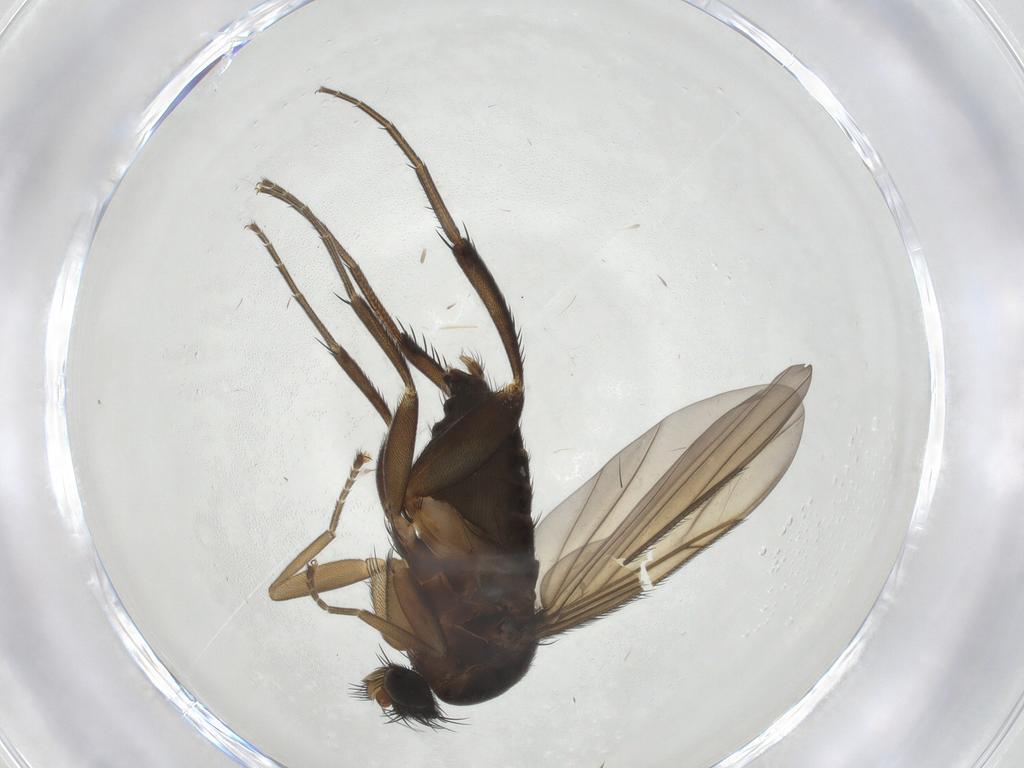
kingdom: Animalia
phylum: Arthropoda
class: Insecta
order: Diptera
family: Phoridae
